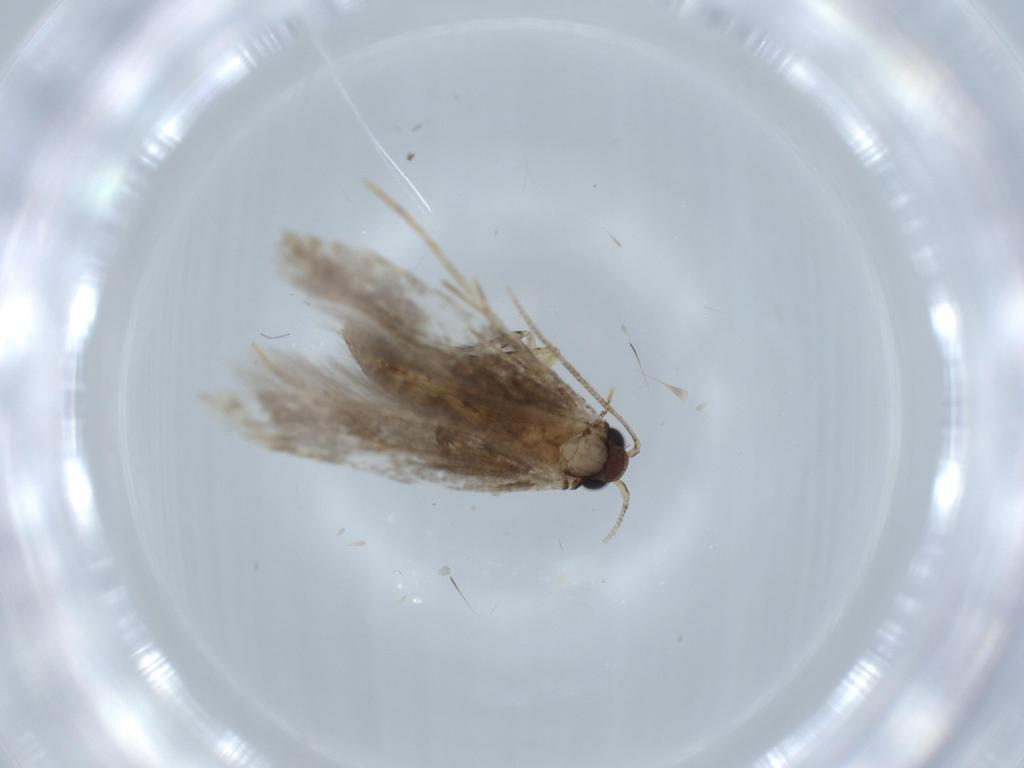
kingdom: Animalia
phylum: Arthropoda
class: Insecta
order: Lepidoptera
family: Tineidae
